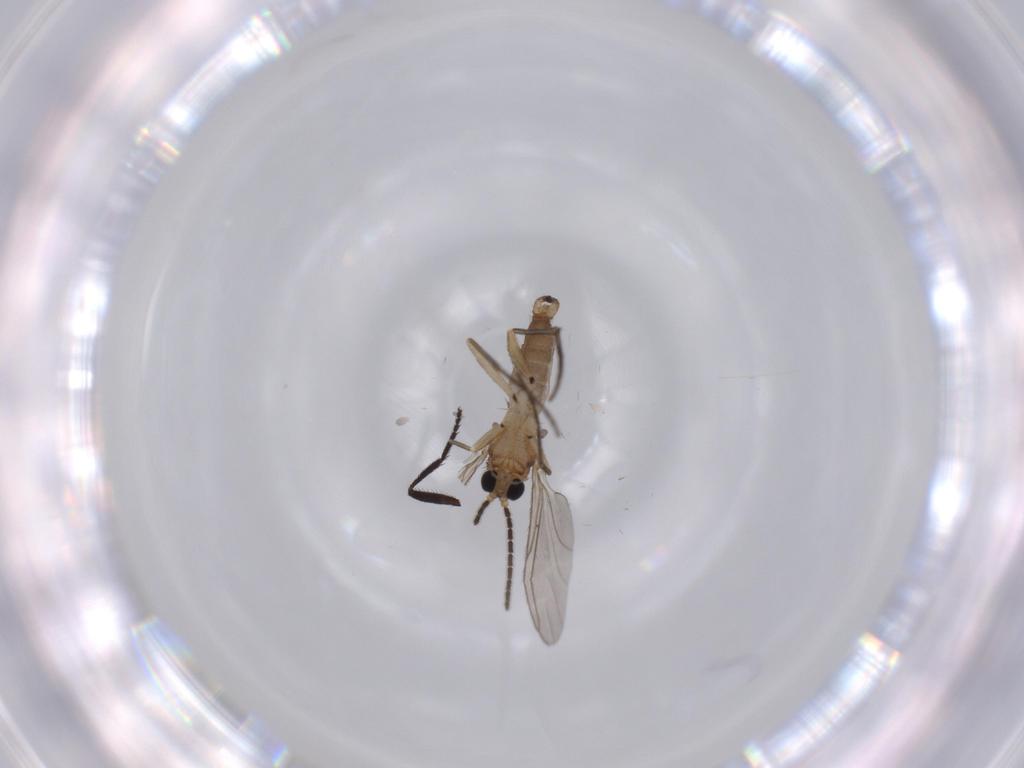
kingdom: Animalia
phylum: Arthropoda
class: Insecta
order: Diptera
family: Sciaridae
